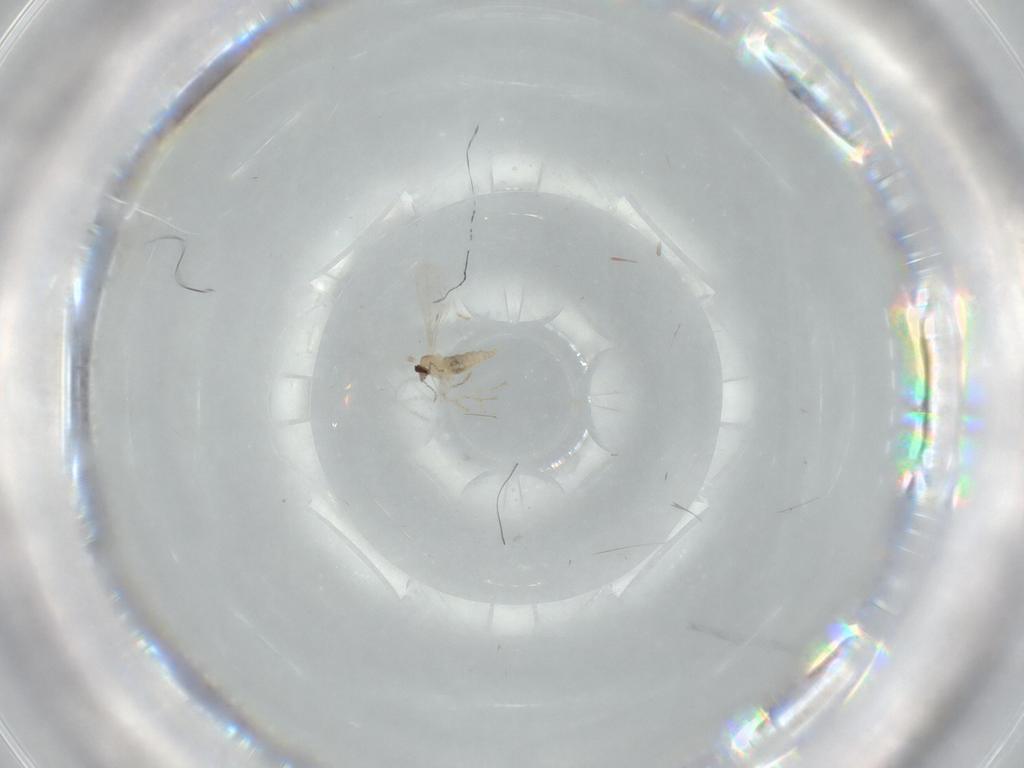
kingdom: Animalia
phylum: Arthropoda
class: Insecta
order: Diptera
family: Cecidomyiidae
